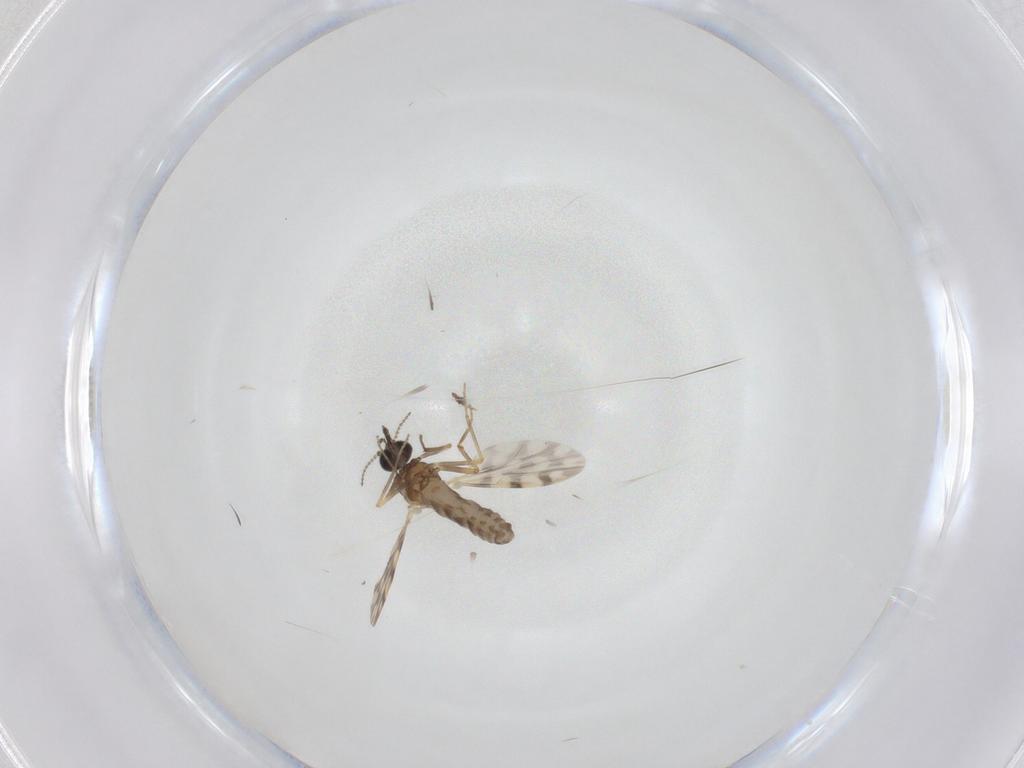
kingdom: Animalia
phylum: Arthropoda
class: Insecta
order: Diptera
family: Ceratopogonidae
